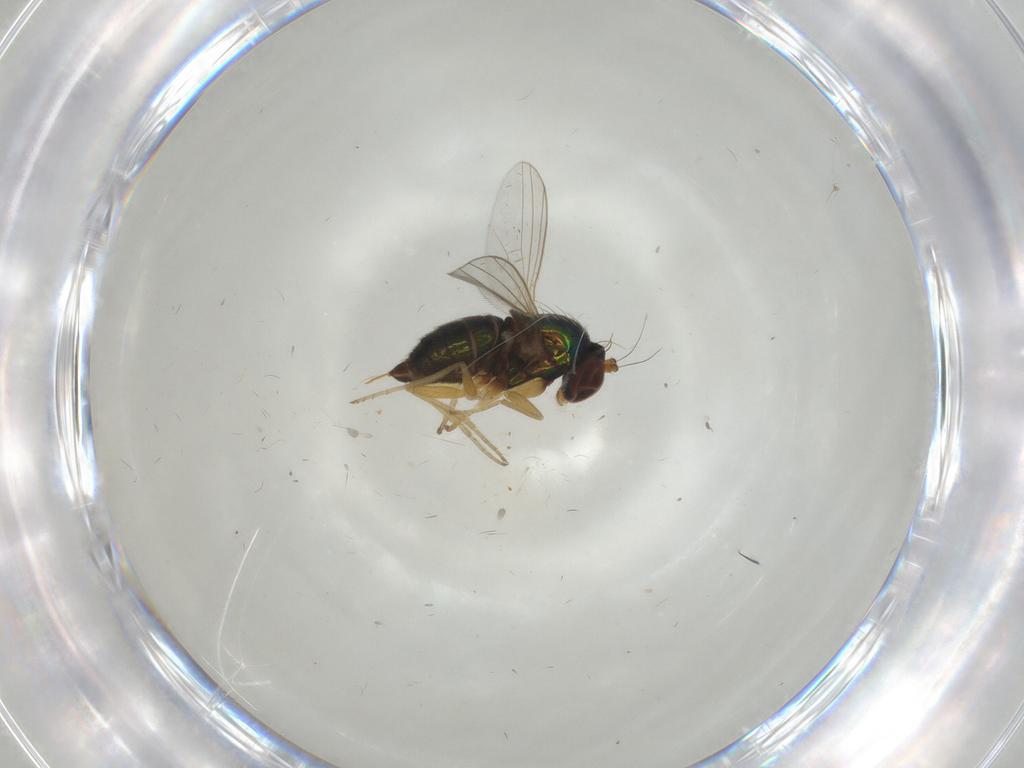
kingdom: Animalia
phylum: Arthropoda
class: Insecta
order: Diptera
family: Dolichopodidae
